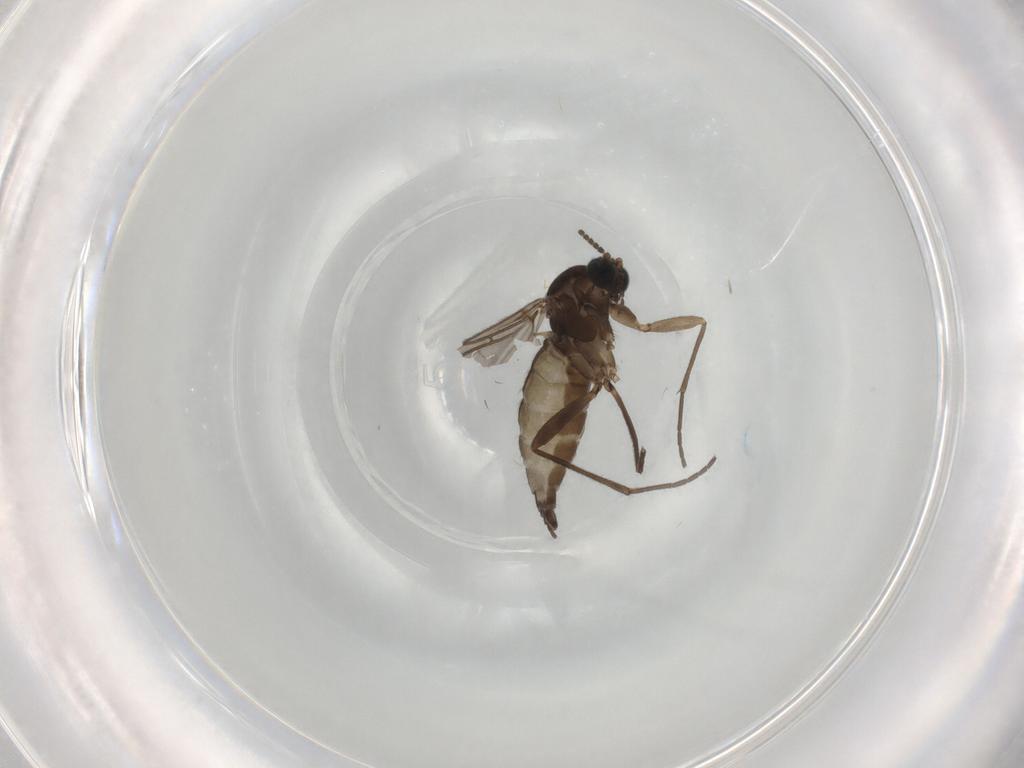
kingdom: Animalia
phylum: Arthropoda
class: Insecta
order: Diptera
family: Sciaridae
